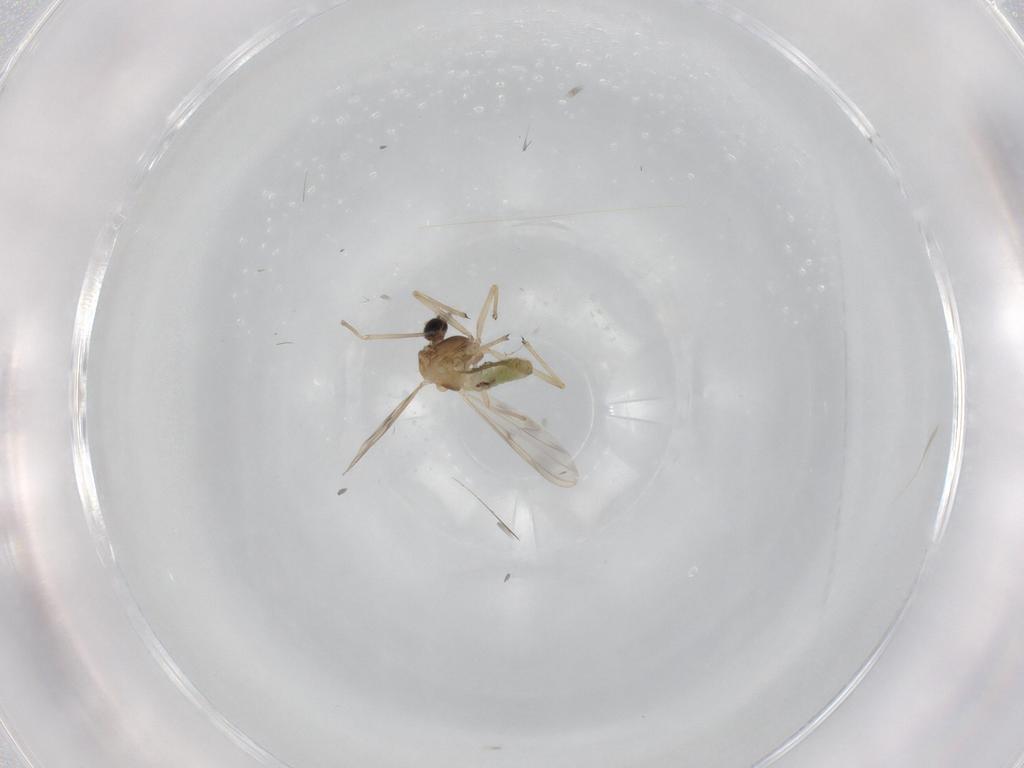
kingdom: Animalia
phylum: Arthropoda
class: Insecta
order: Diptera
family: Chironomidae
